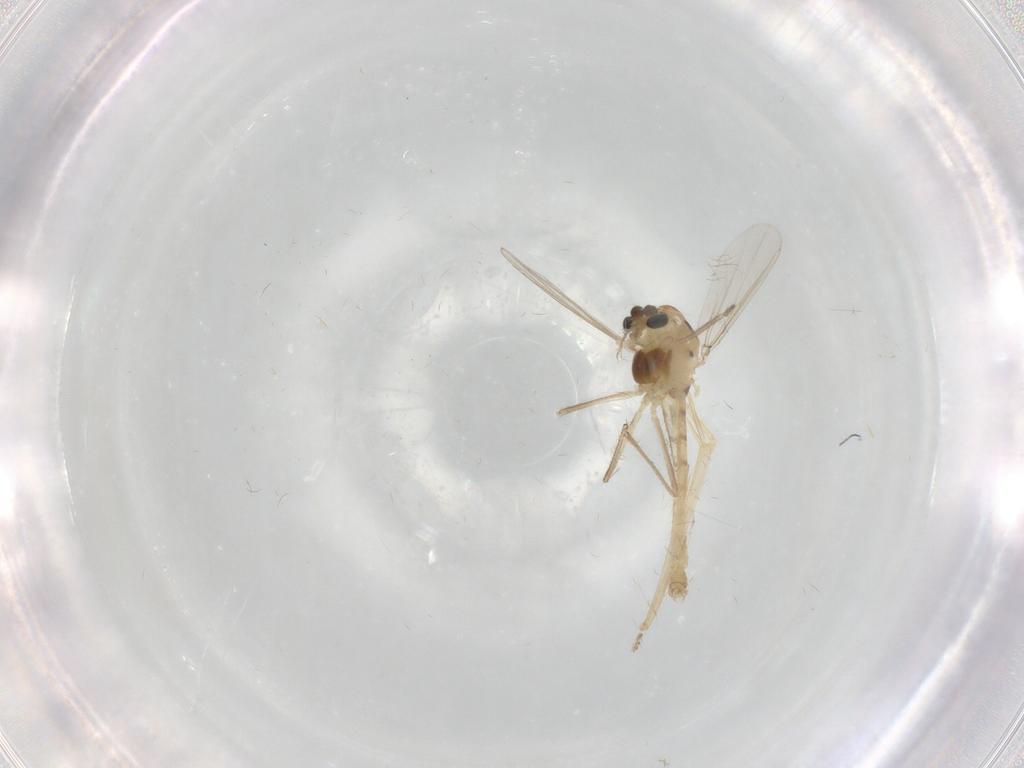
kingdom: Animalia
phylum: Arthropoda
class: Insecta
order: Diptera
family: Chironomidae
